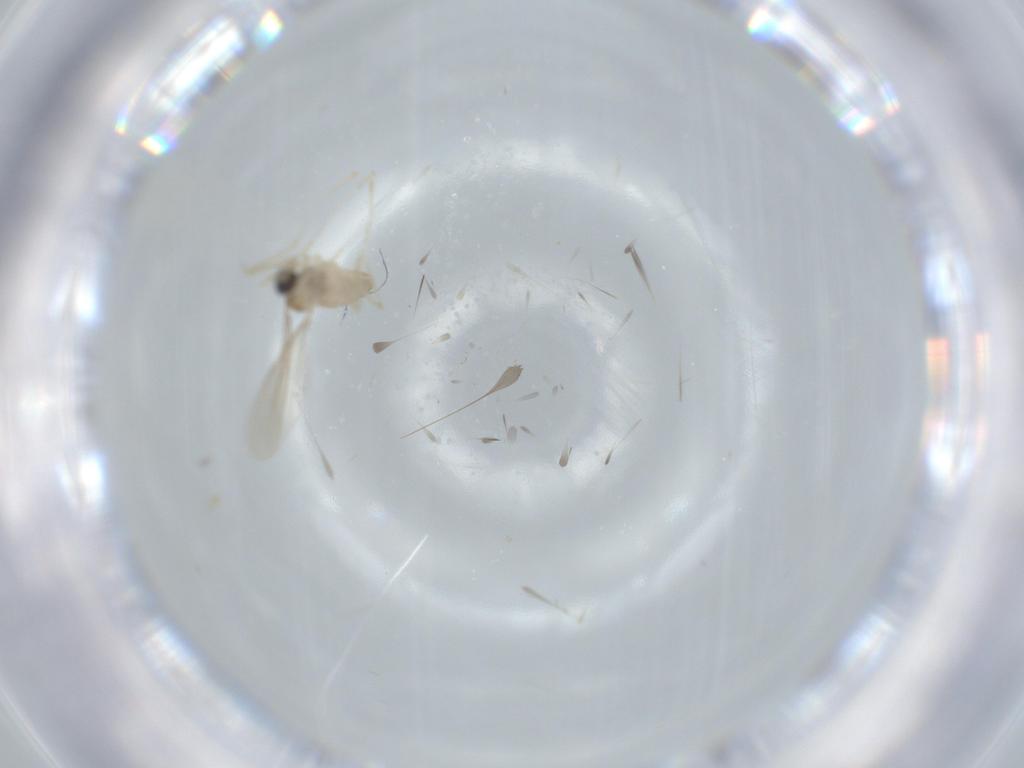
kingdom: Animalia
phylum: Arthropoda
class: Insecta
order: Diptera
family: Cecidomyiidae
